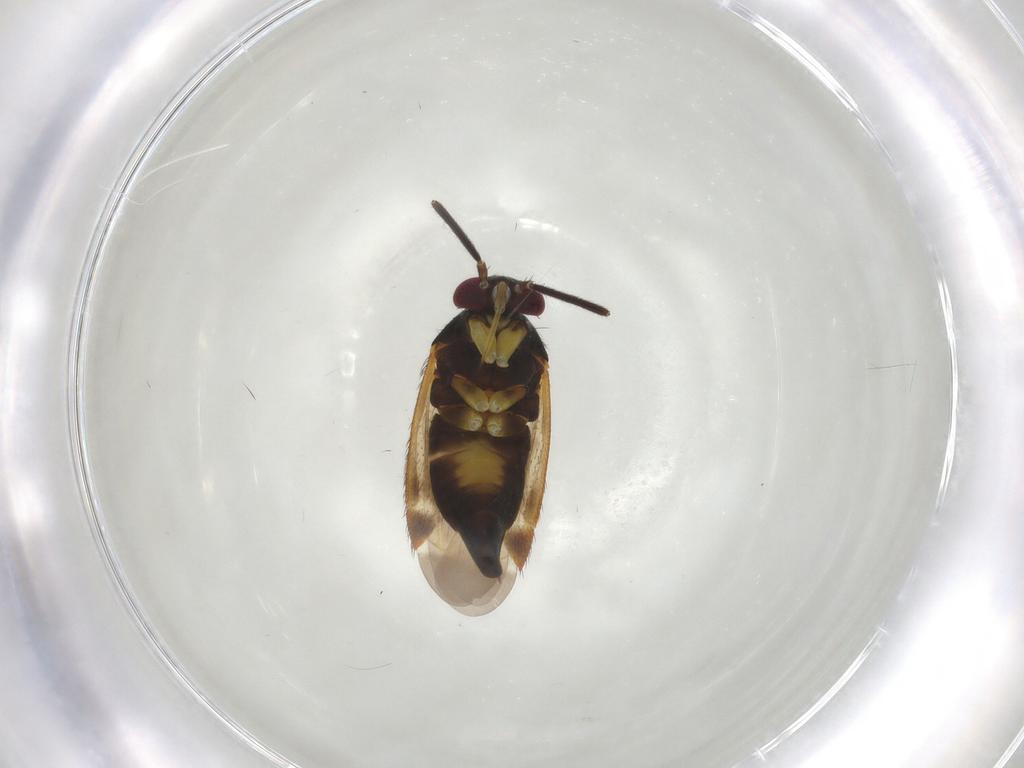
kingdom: Animalia
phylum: Arthropoda
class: Insecta
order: Hemiptera
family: Miridae
